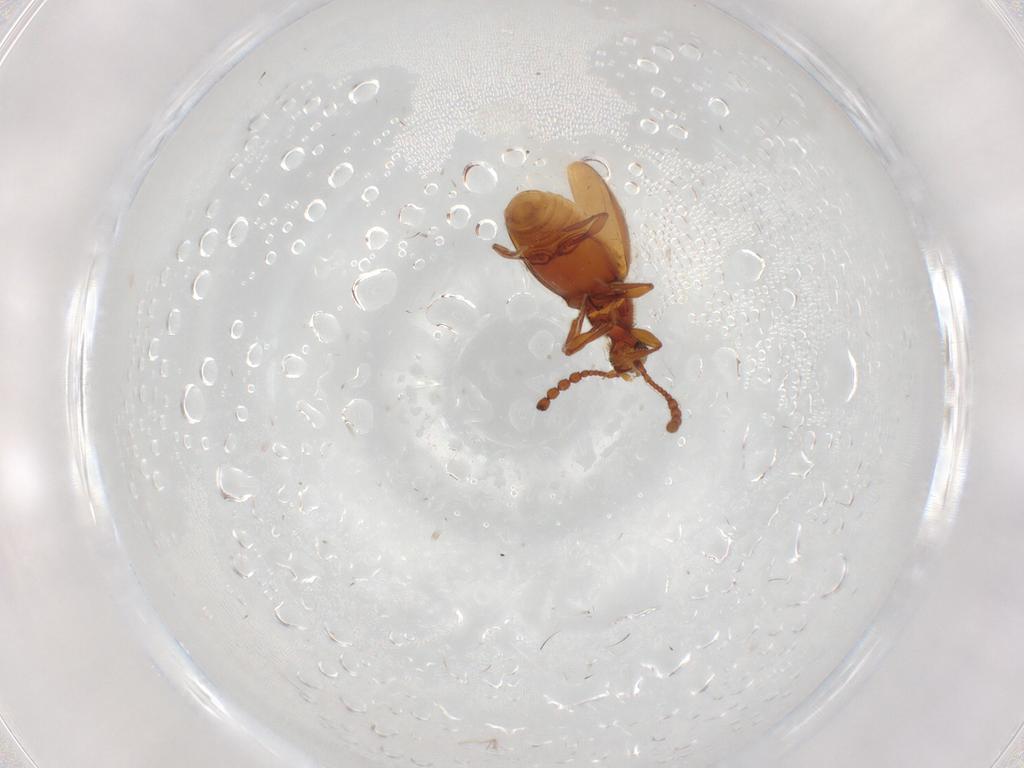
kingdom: Animalia
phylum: Arthropoda
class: Insecta
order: Coleoptera
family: Staphylinidae
